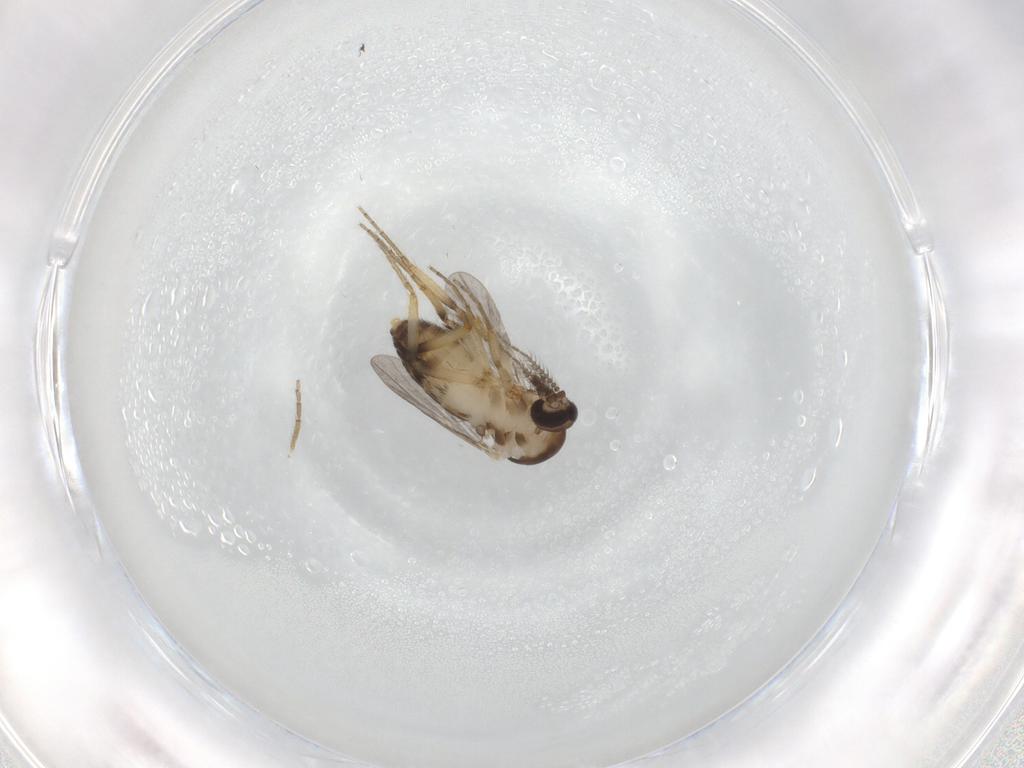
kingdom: Animalia
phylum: Arthropoda
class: Insecta
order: Diptera
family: Ceratopogonidae
